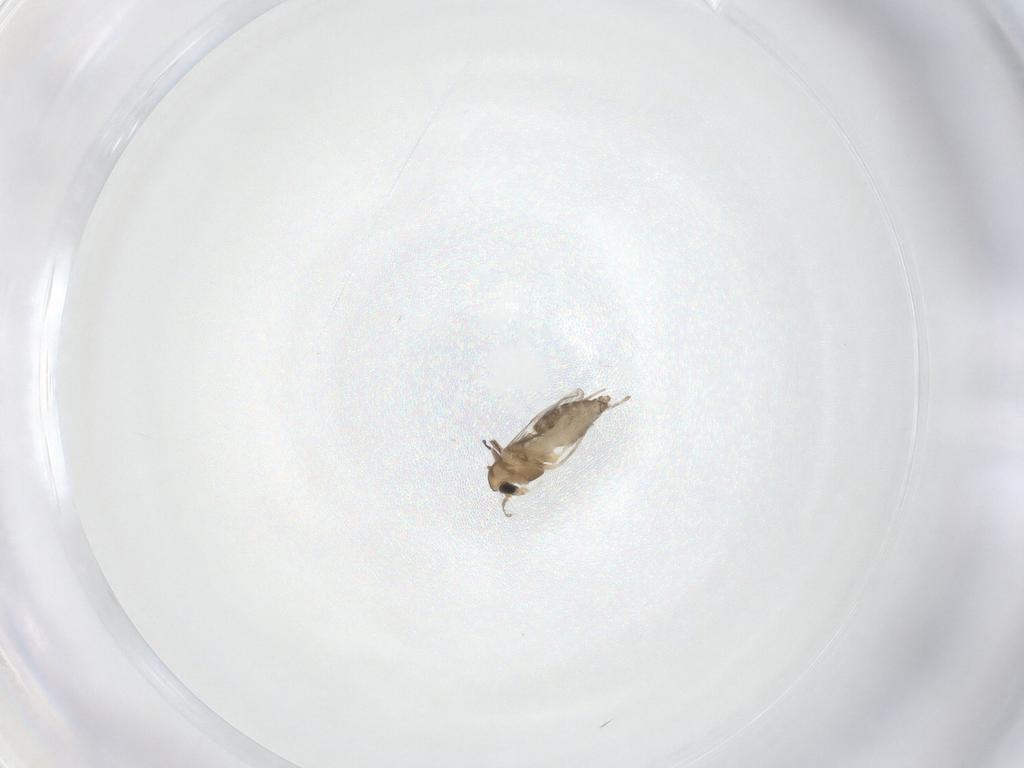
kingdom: Animalia
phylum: Arthropoda
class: Insecta
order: Diptera
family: Chironomidae
